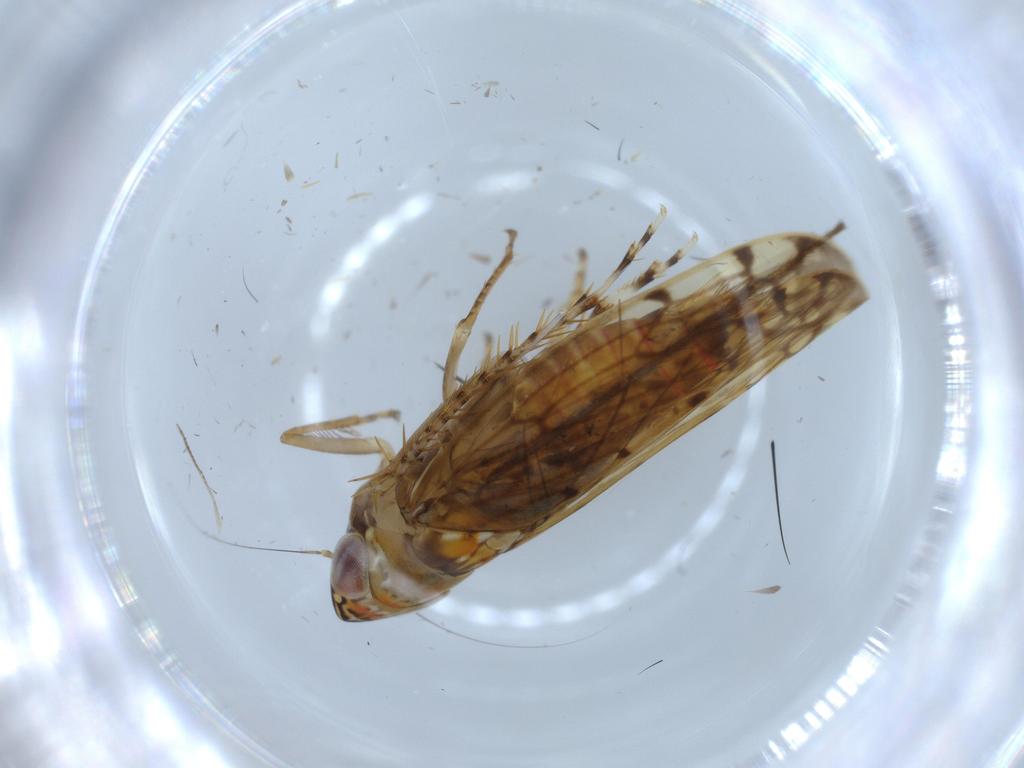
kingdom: Animalia
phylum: Arthropoda
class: Insecta
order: Hemiptera
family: Cicadellidae
